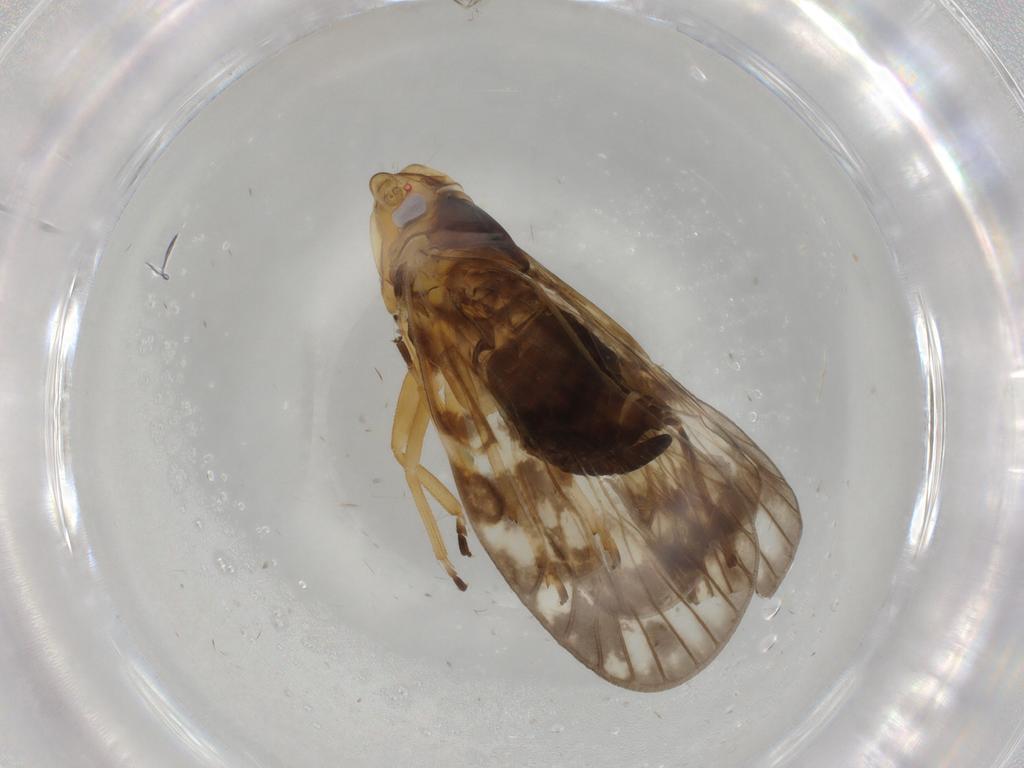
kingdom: Animalia
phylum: Arthropoda
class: Insecta
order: Hemiptera
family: Cixiidae
